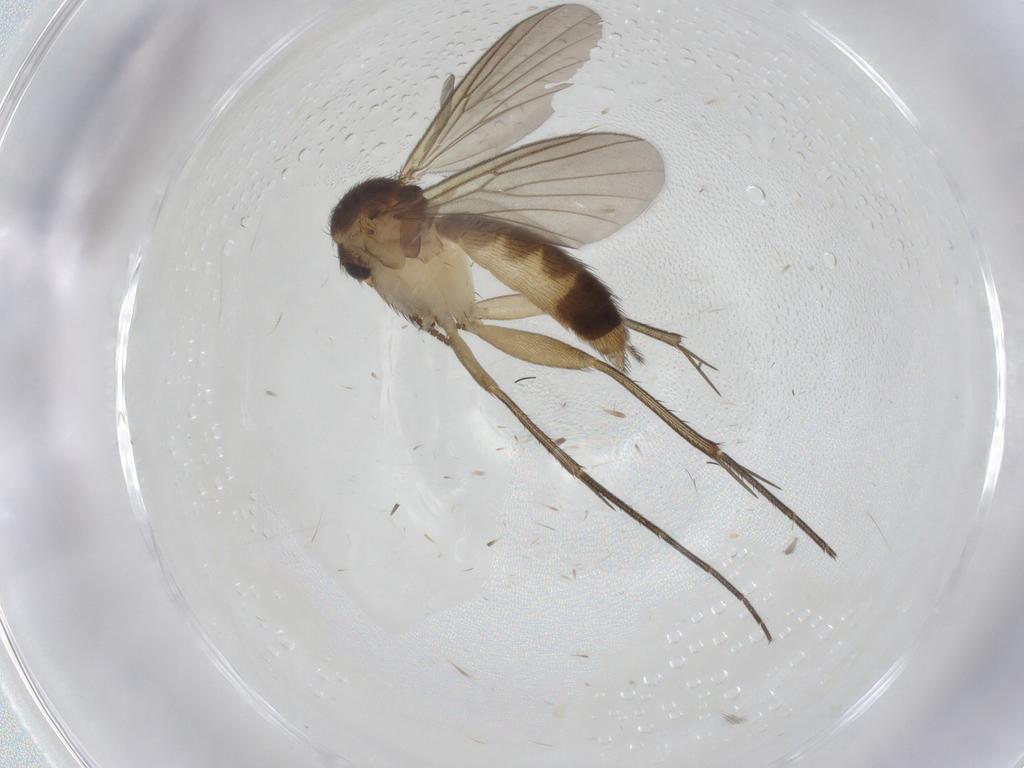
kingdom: Animalia
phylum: Arthropoda
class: Insecta
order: Diptera
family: Mycetophilidae
